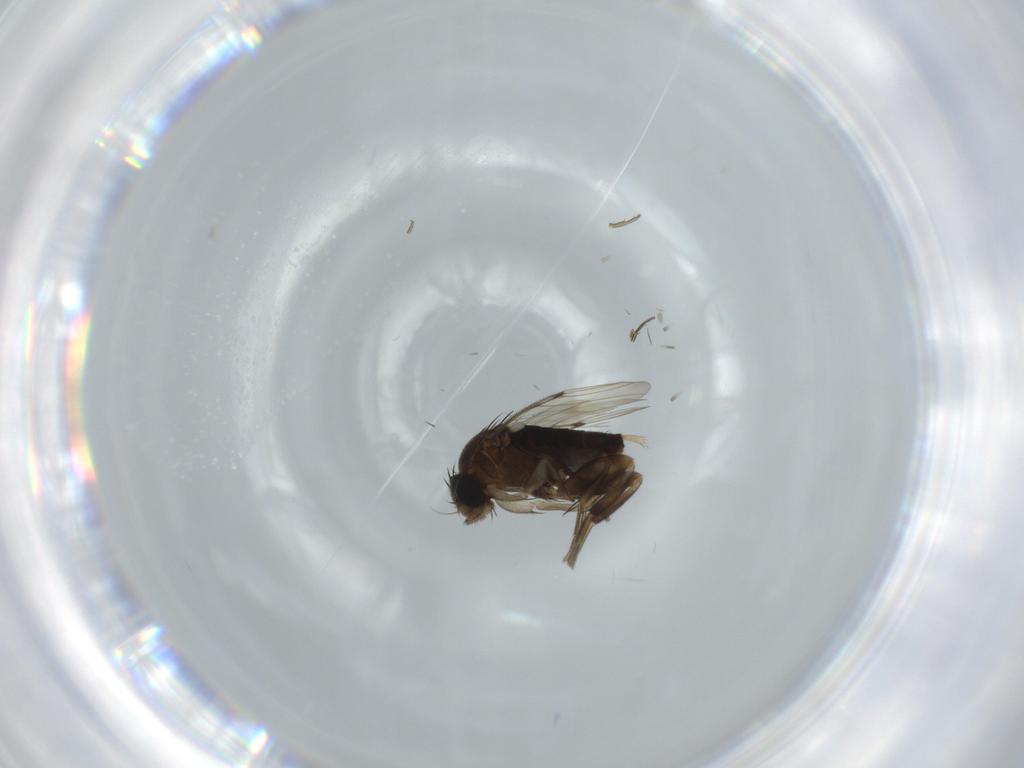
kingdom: Animalia
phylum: Arthropoda
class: Insecta
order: Diptera
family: Phoridae
